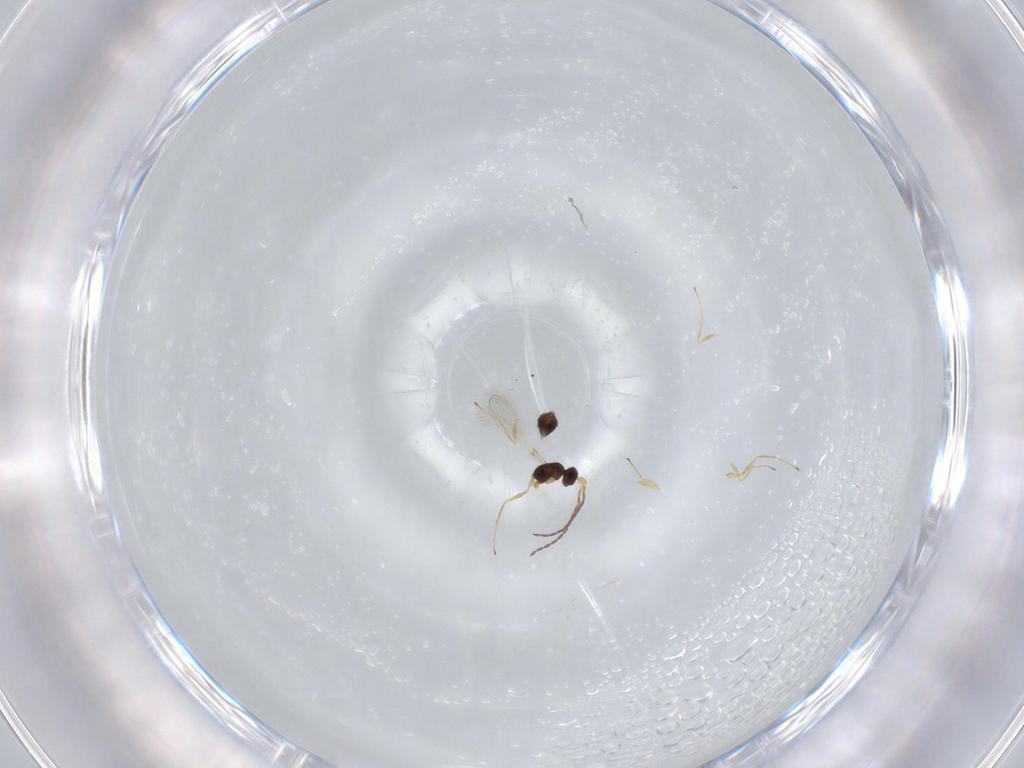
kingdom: Animalia
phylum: Arthropoda
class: Insecta
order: Hymenoptera
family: Mymaridae
